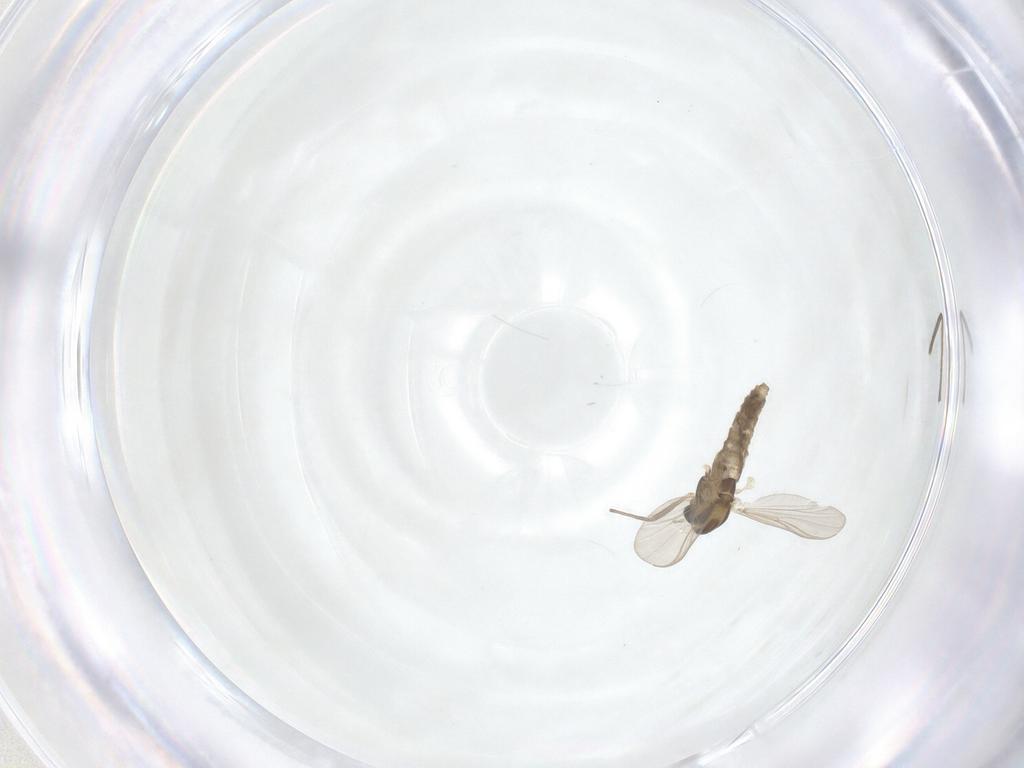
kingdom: Animalia
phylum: Arthropoda
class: Insecta
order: Diptera
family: Chironomidae
